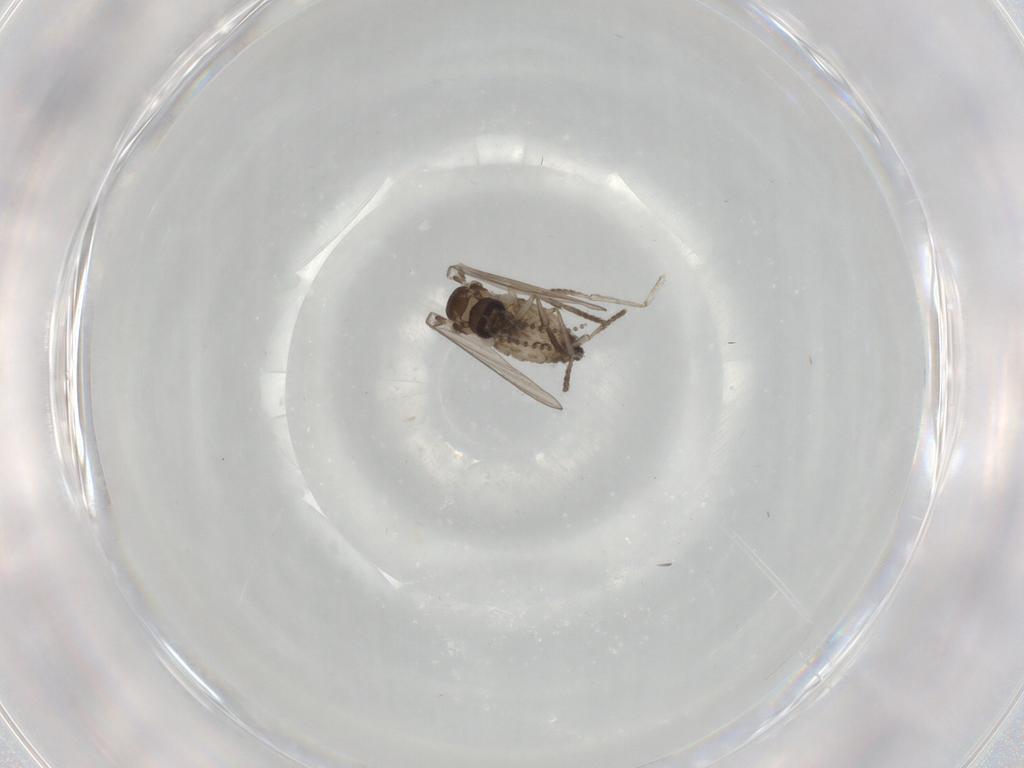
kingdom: Animalia
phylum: Arthropoda
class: Insecta
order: Diptera
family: Psychodidae
